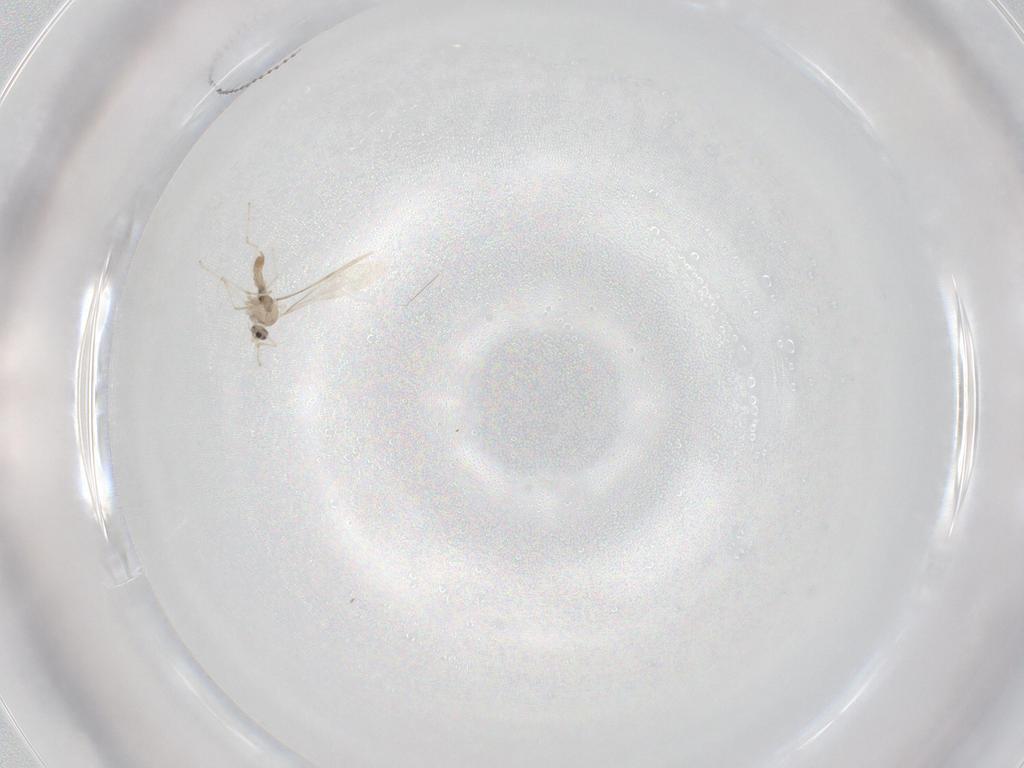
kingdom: Animalia
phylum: Arthropoda
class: Insecta
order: Diptera
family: Cecidomyiidae
